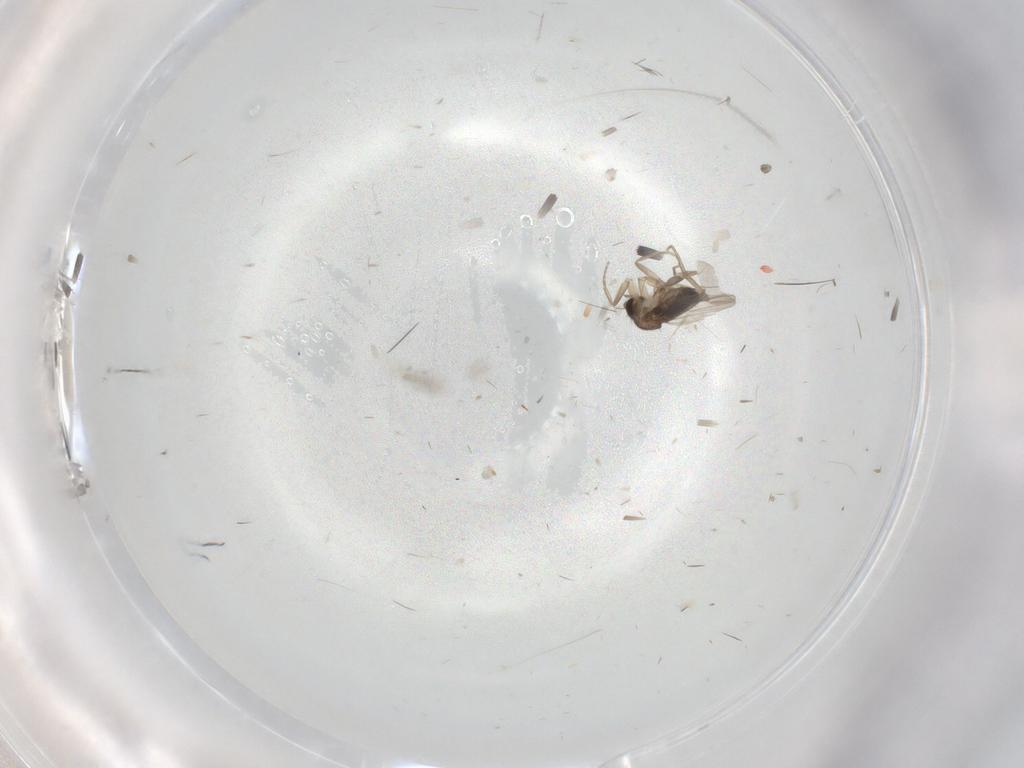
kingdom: Animalia
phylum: Arthropoda
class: Insecta
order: Diptera
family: Phoridae
